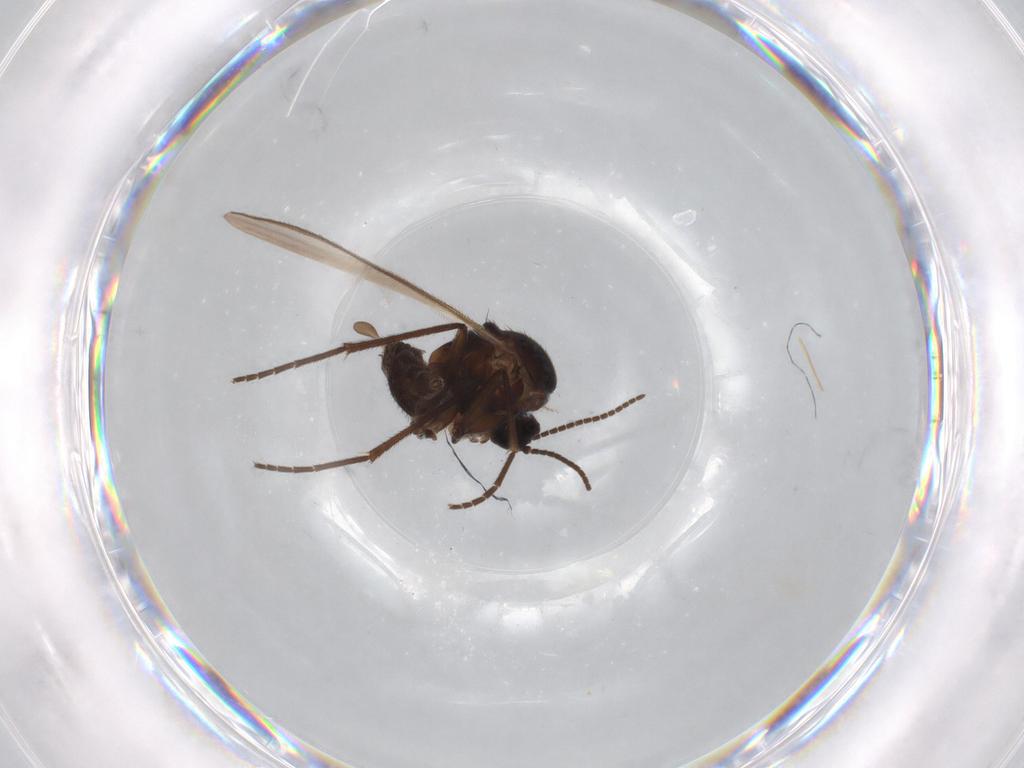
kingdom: Animalia
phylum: Arthropoda
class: Insecta
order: Diptera
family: Sciaridae
